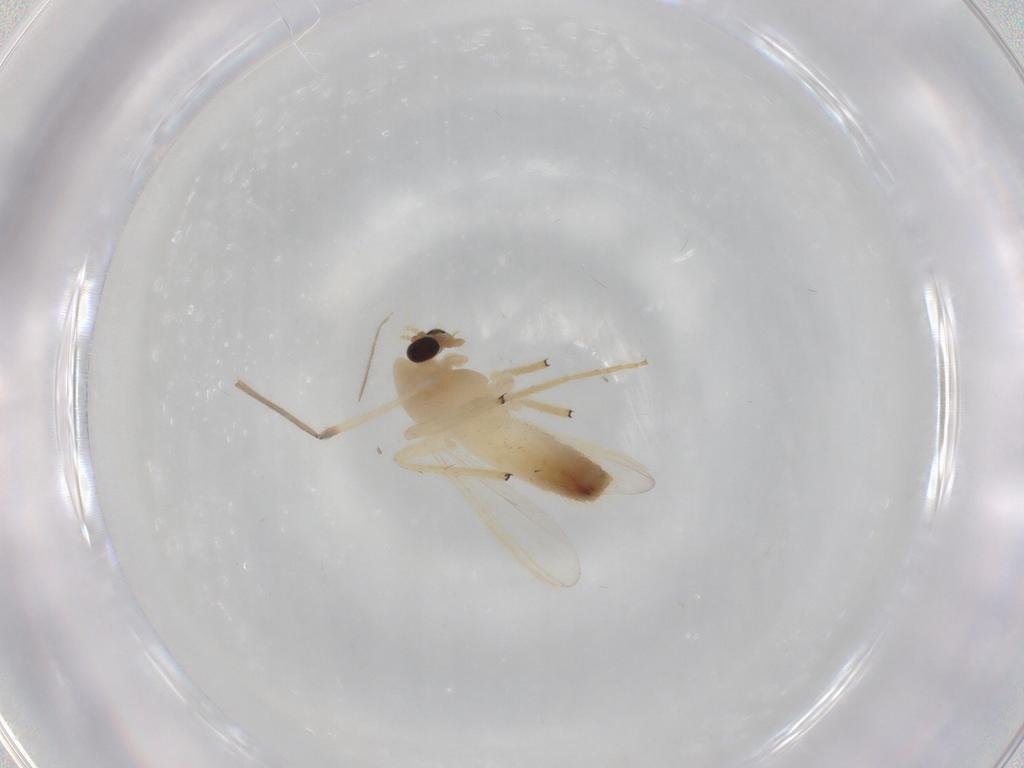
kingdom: Animalia
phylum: Arthropoda
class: Insecta
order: Diptera
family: Chironomidae
